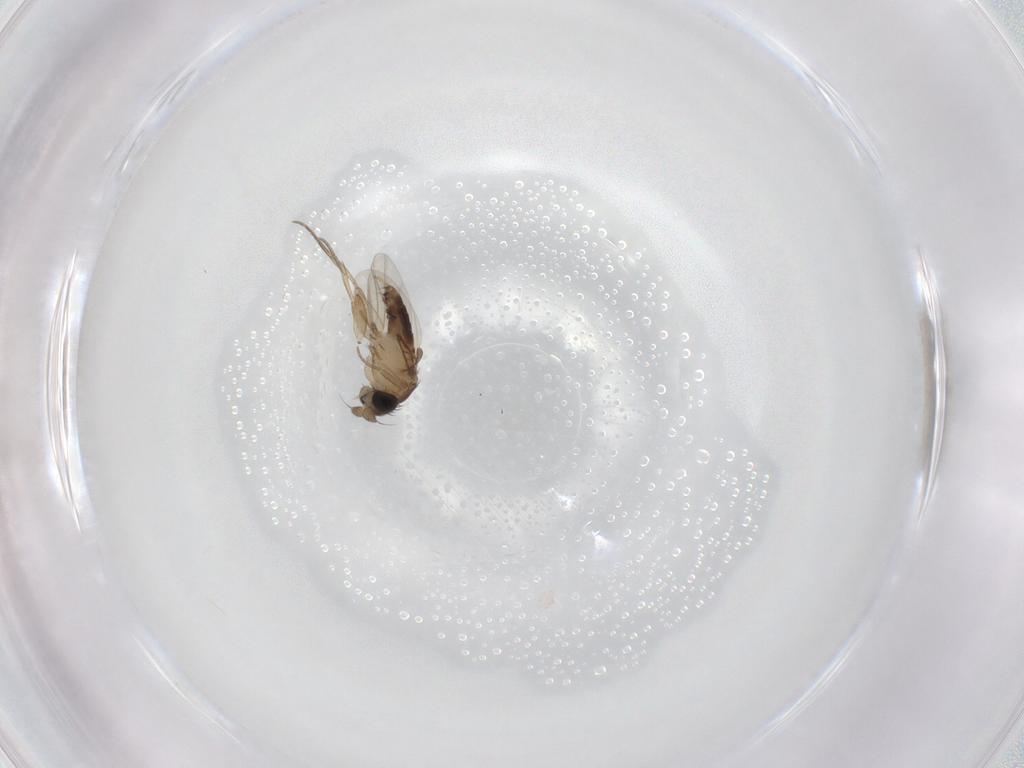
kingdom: Animalia
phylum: Arthropoda
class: Insecta
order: Diptera
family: Phoridae
